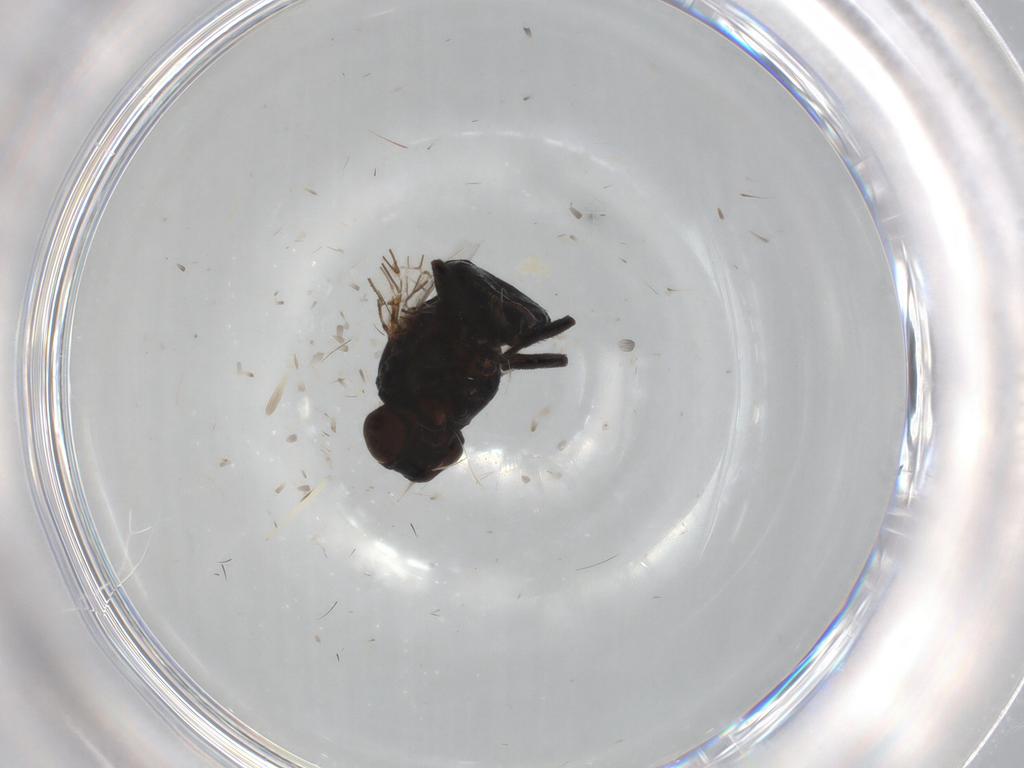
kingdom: Animalia
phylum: Arthropoda
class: Insecta
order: Diptera
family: Agromyzidae
